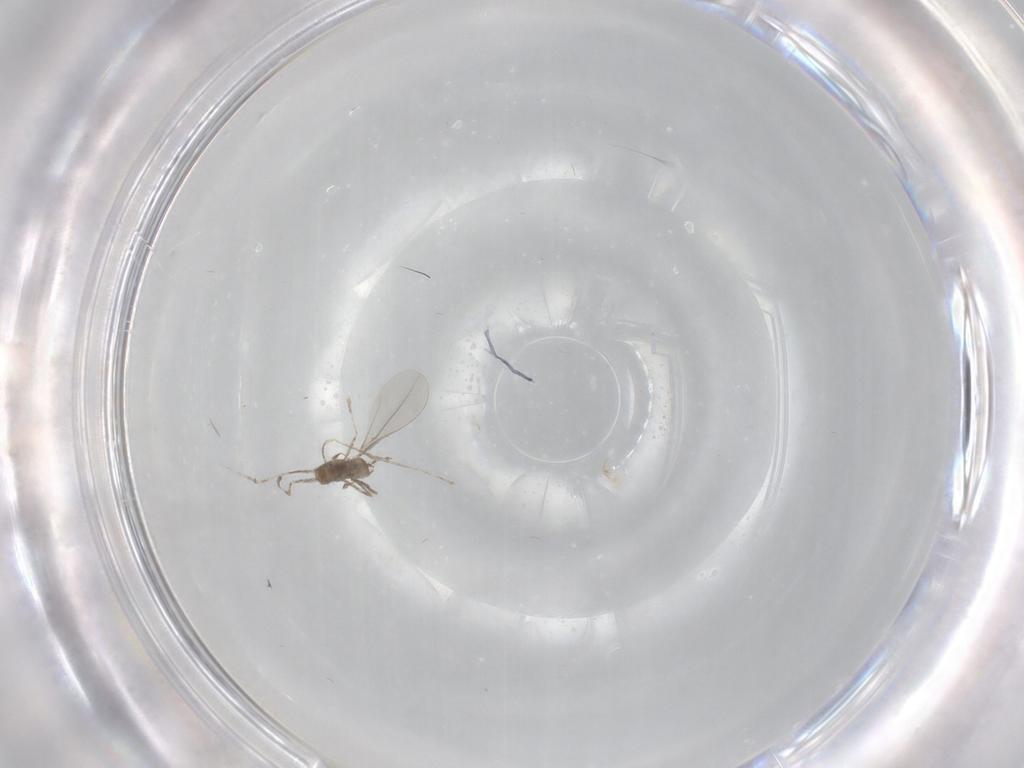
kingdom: Animalia
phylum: Arthropoda
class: Insecta
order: Diptera
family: Cecidomyiidae
